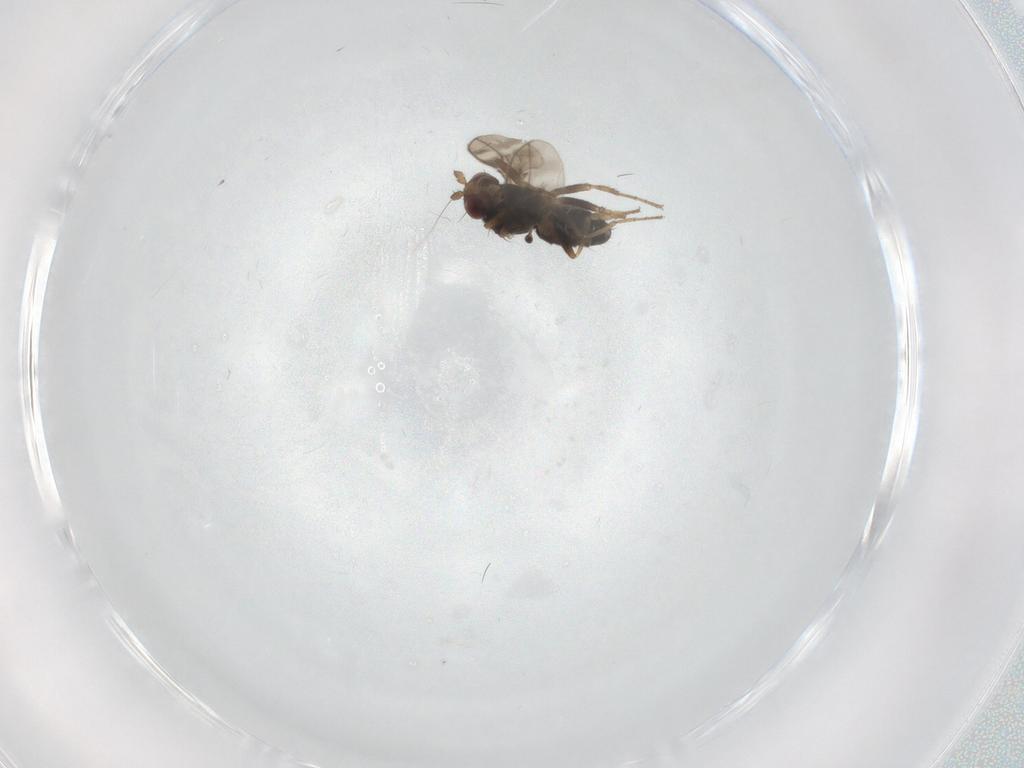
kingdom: Animalia
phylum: Arthropoda
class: Insecta
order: Diptera
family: Sphaeroceridae
